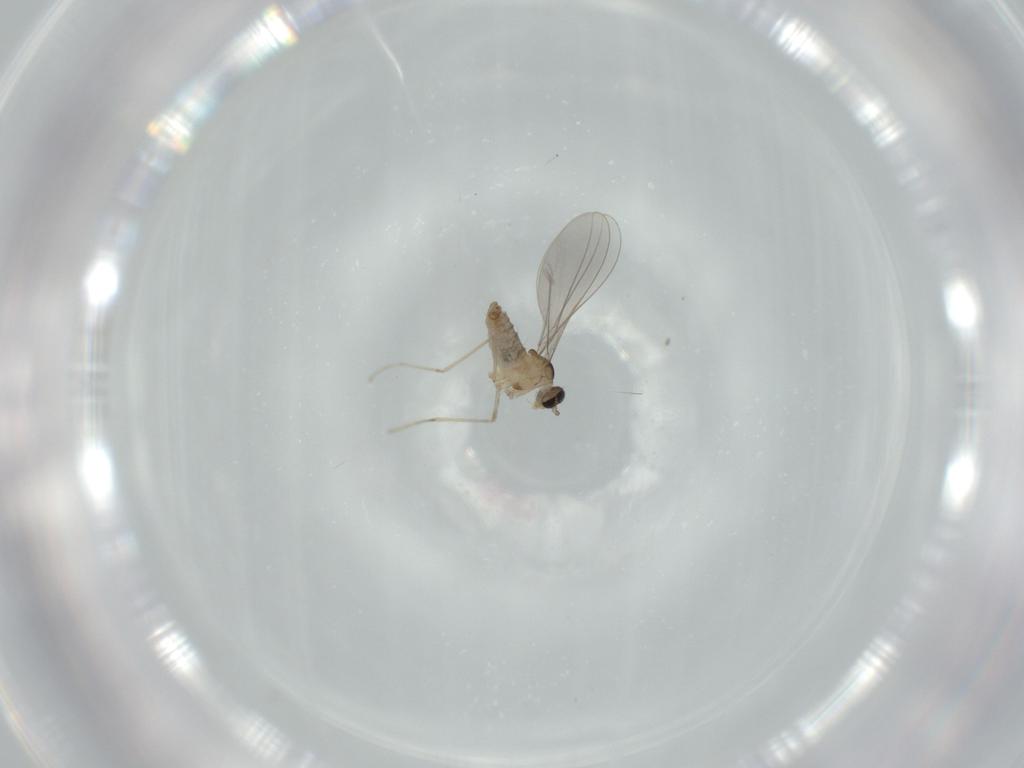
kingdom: Animalia
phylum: Arthropoda
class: Insecta
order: Diptera
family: Cecidomyiidae
